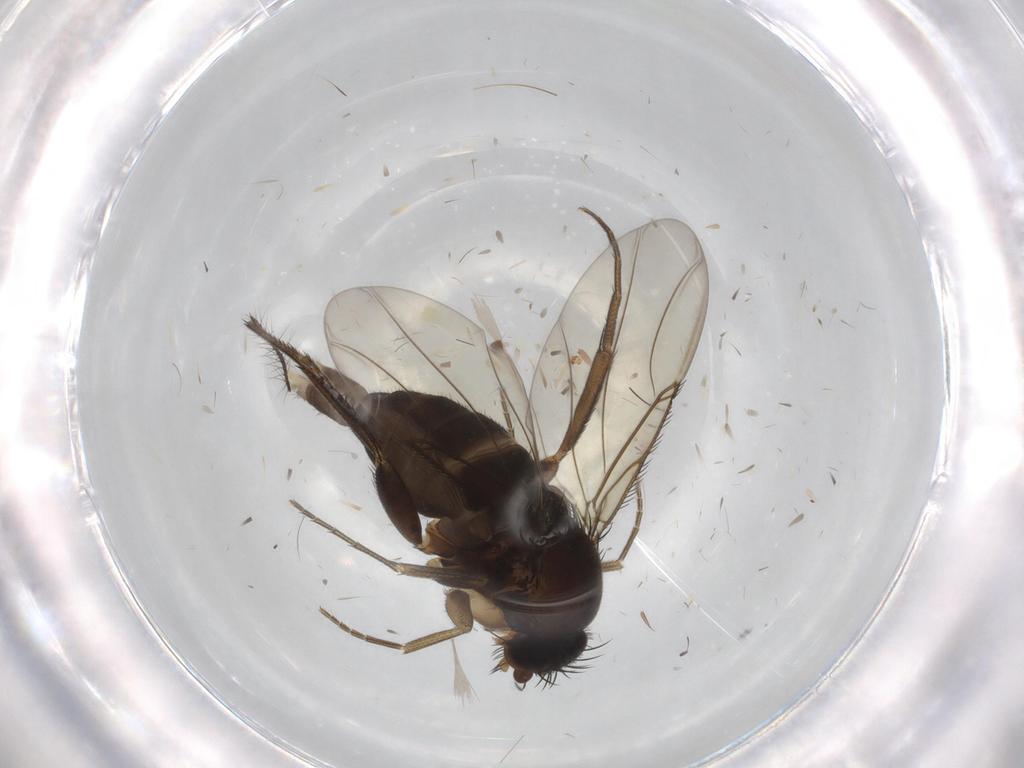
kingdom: Animalia
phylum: Arthropoda
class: Insecta
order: Diptera
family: Phoridae
